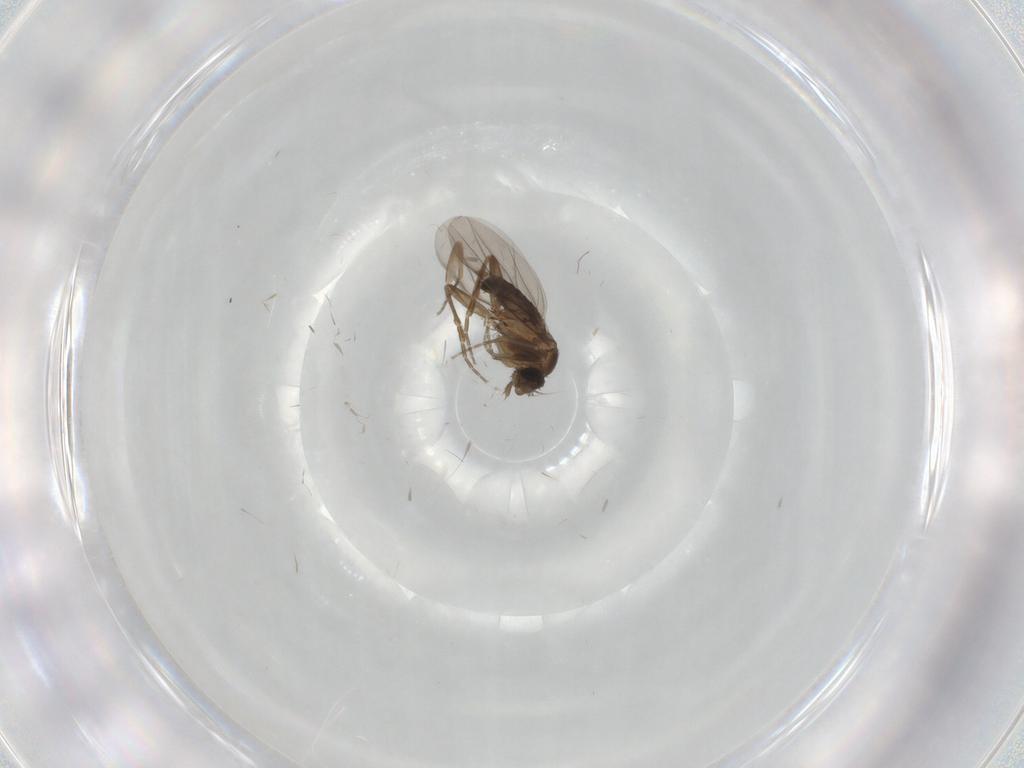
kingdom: Animalia
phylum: Arthropoda
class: Insecta
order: Diptera
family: Phoridae
